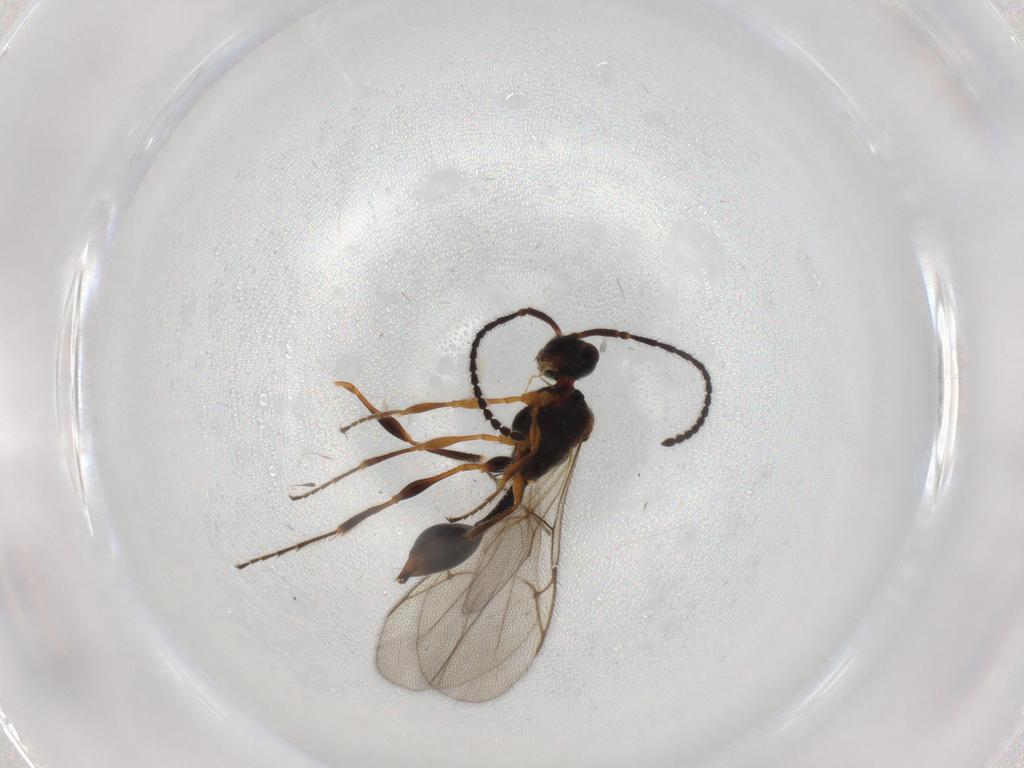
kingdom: Animalia
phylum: Arthropoda
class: Insecta
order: Hymenoptera
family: Diapriidae
